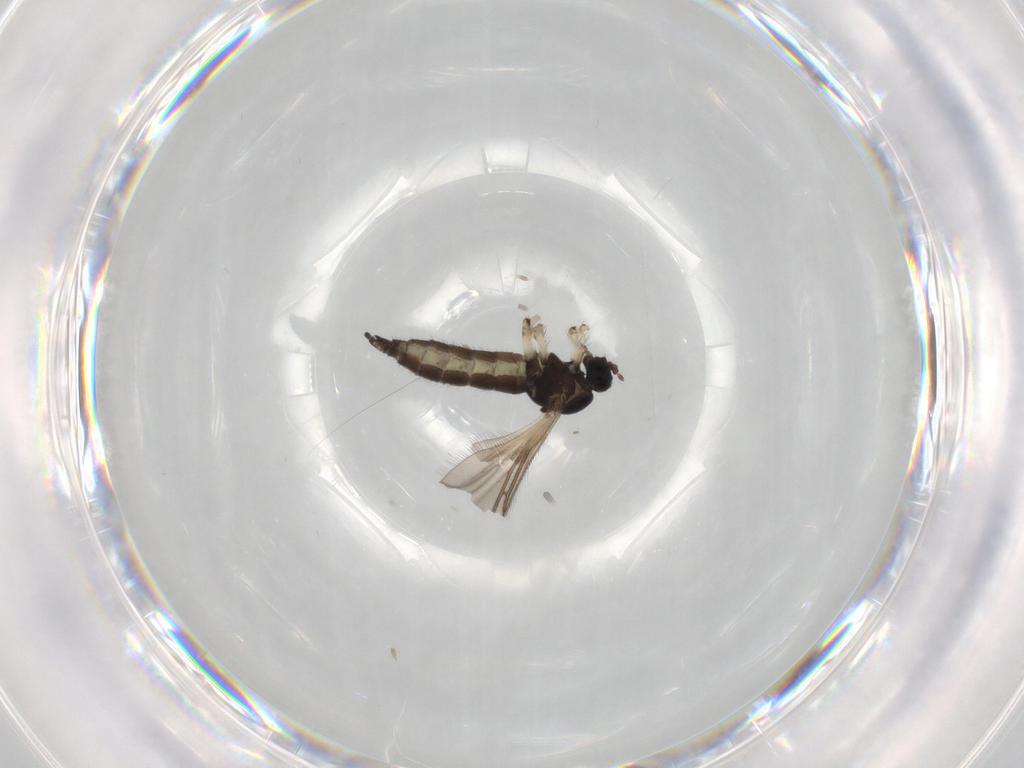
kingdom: Animalia
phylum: Arthropoda
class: Insecta
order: Diptera
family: Sciaridae
